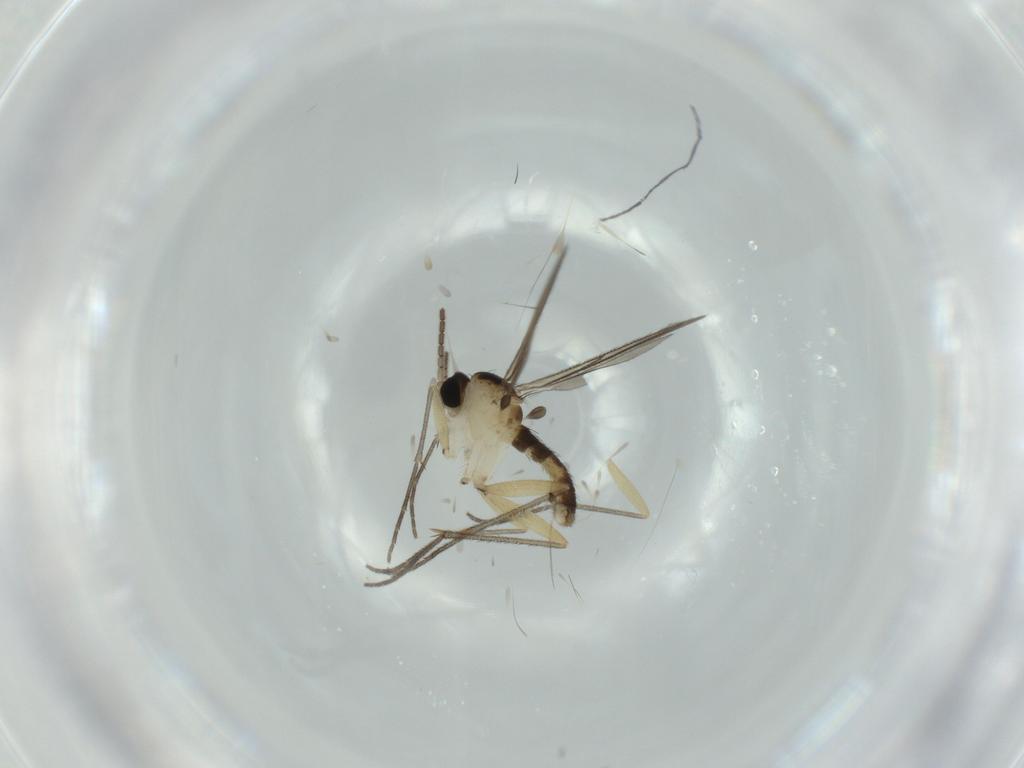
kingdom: Animalia
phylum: Arthropoda
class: Insecta
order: Diptera
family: Sciaridae
